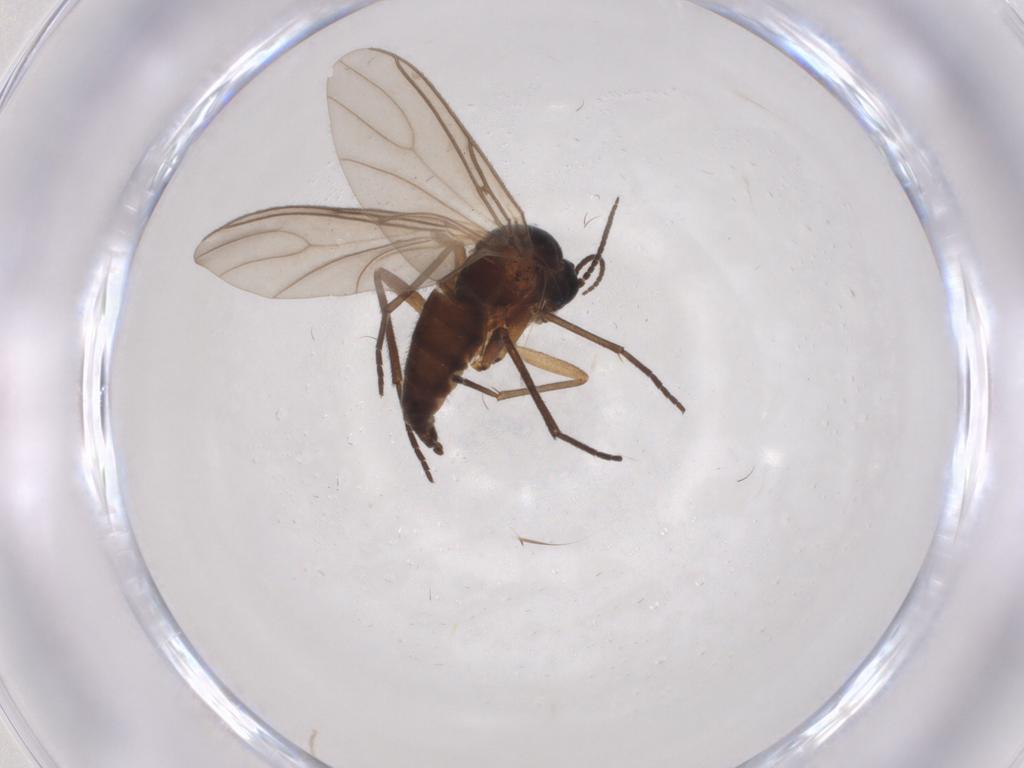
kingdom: Animalia
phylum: Arthropoda
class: Insecta
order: Diptera
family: Sciaridae
